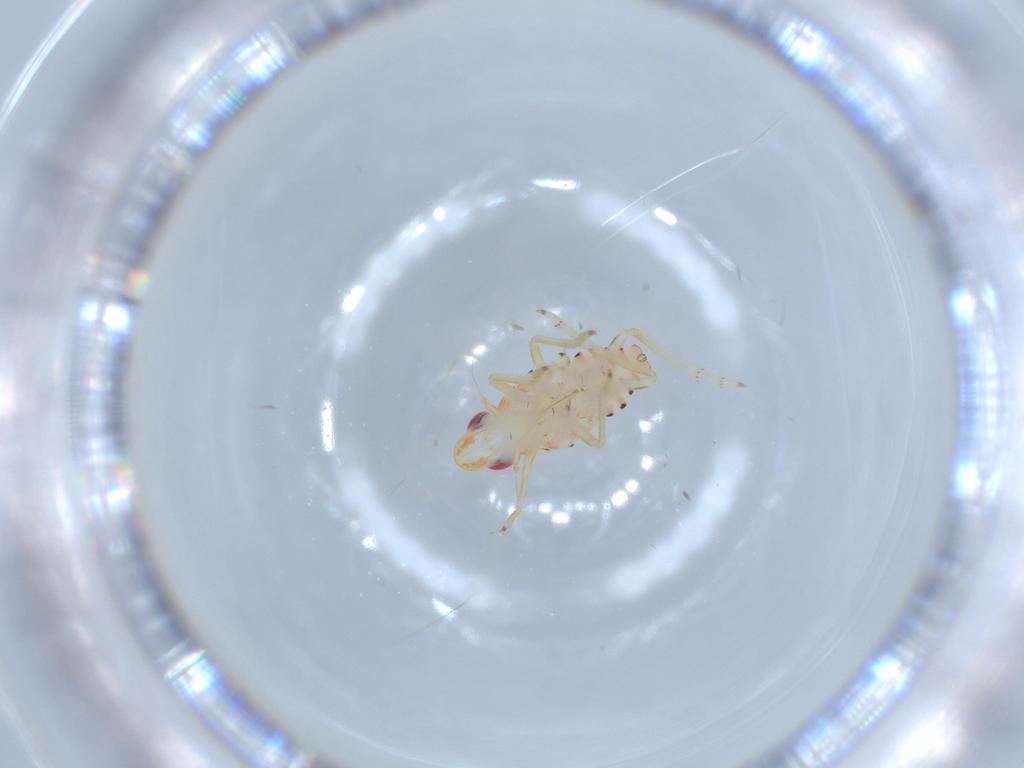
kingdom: Animalia
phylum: Arthropoda
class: Insecta
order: Hemiptera
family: Tropiduchidae
